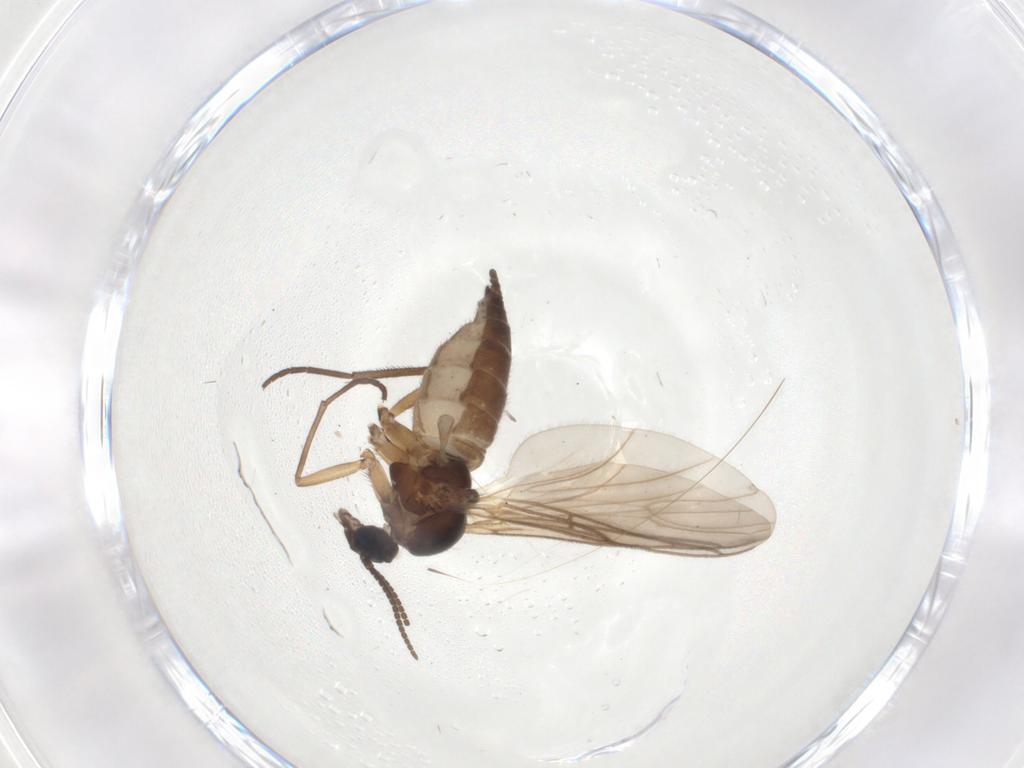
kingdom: Animalia
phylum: Arthropoda
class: Insecta
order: Diptera
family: Sciaridae
